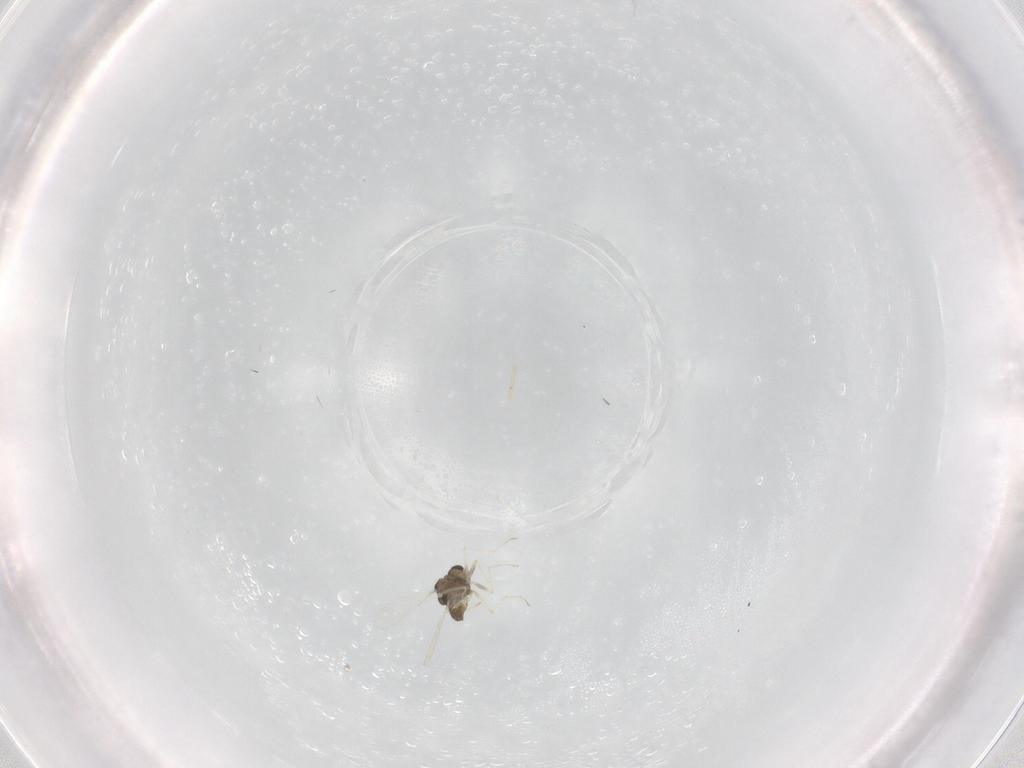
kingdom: Animalia
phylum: Arthropoda
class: Insecta
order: Diptera
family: Chironomidae
